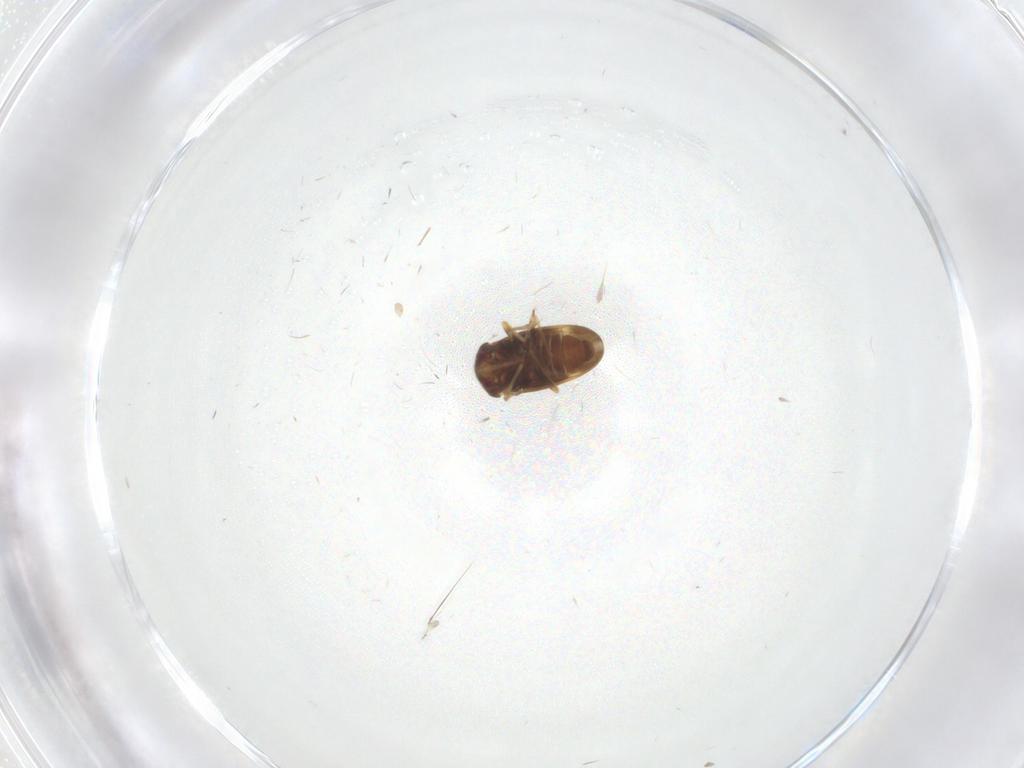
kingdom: Animalia
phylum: Arthropoda
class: Insecta
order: Hemiptera
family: Schizopteridae
